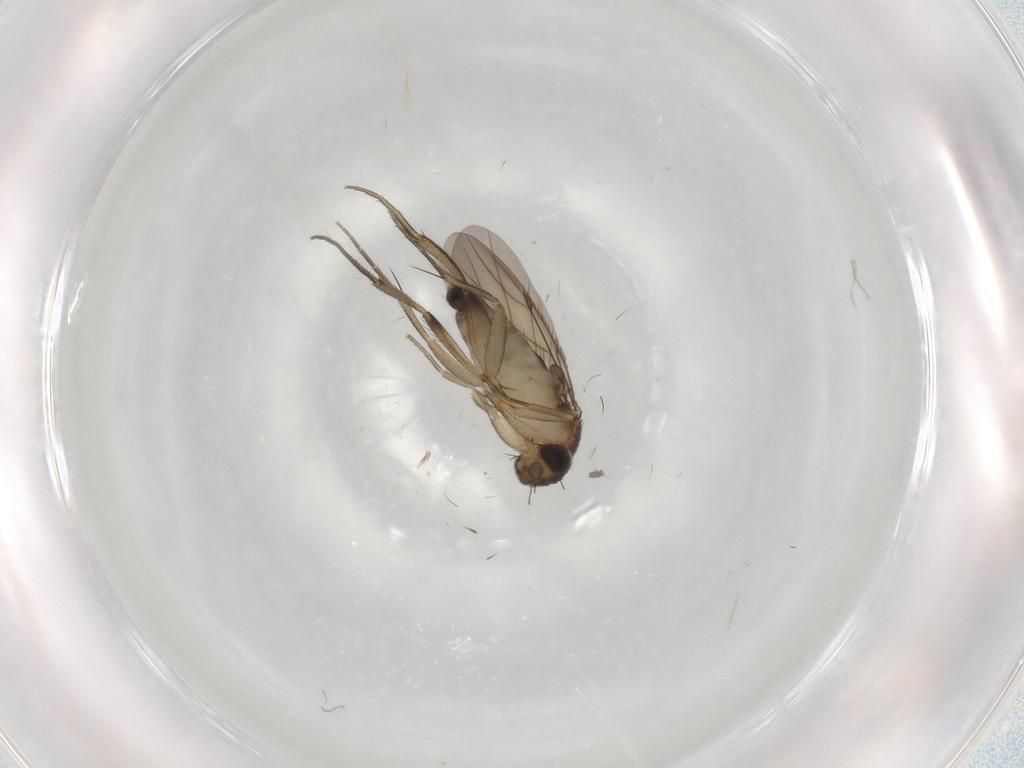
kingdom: Animalia
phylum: Arthropoda
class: Insecta
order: Diptera
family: Cecidomyiidae
